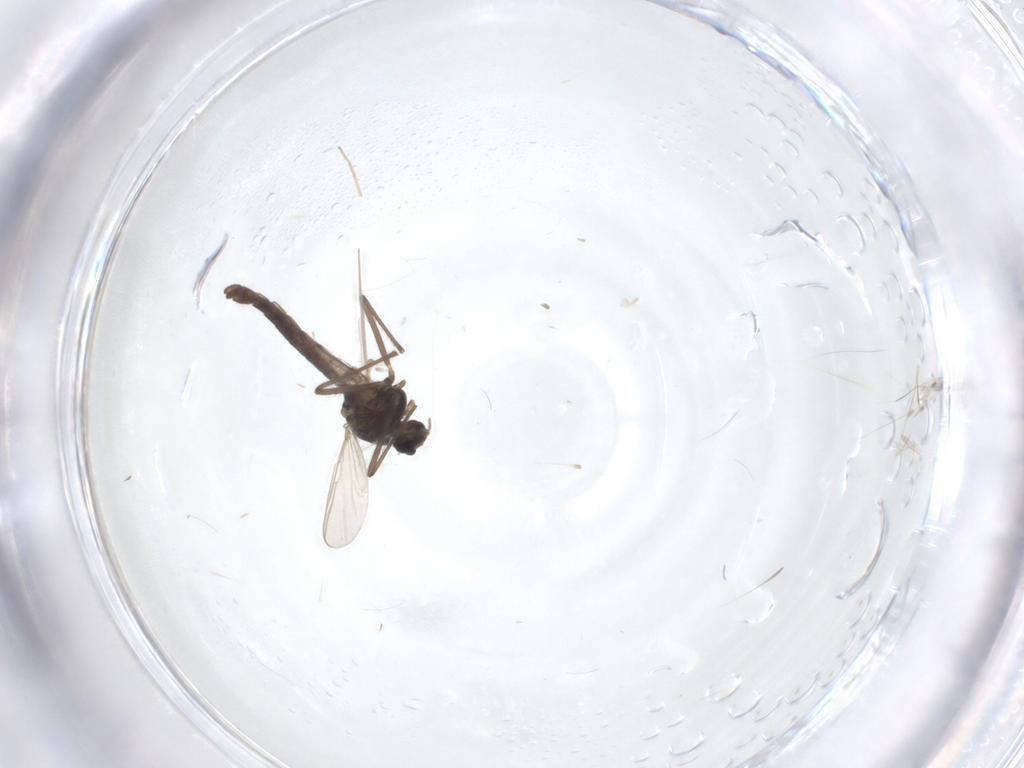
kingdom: Animalia
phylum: Arthropoda
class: Insecta
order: Diptera
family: Chironomidae
